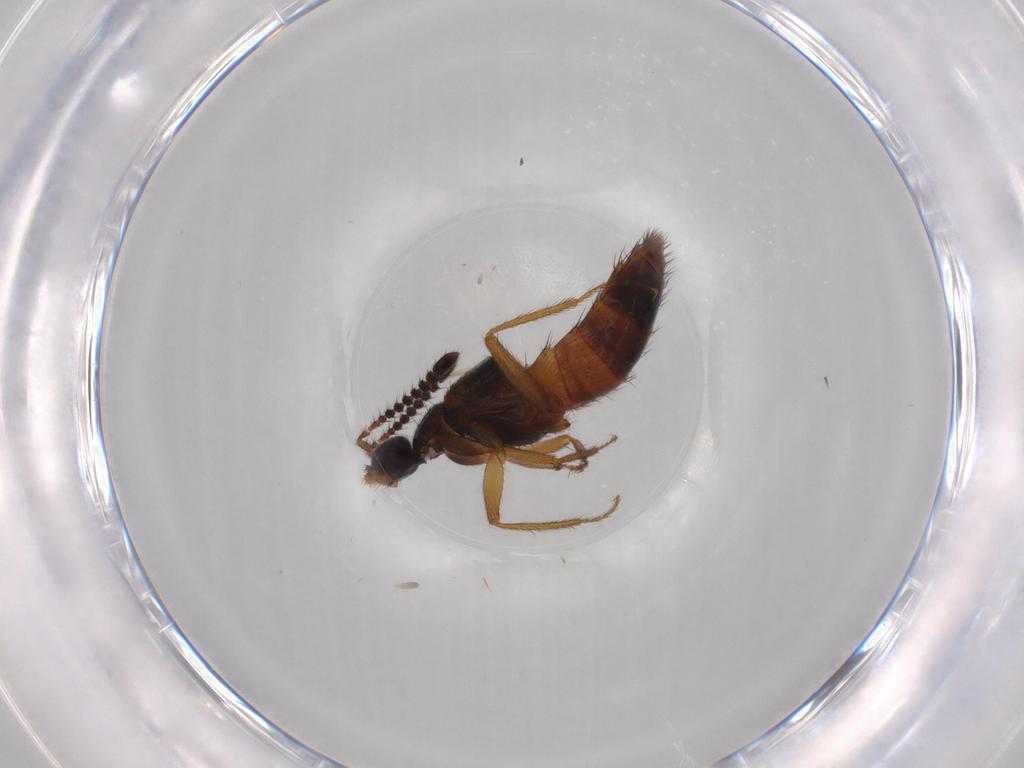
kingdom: Animalia
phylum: Arthropoda
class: Insecta
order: Coleoptera
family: Staphylinidae
